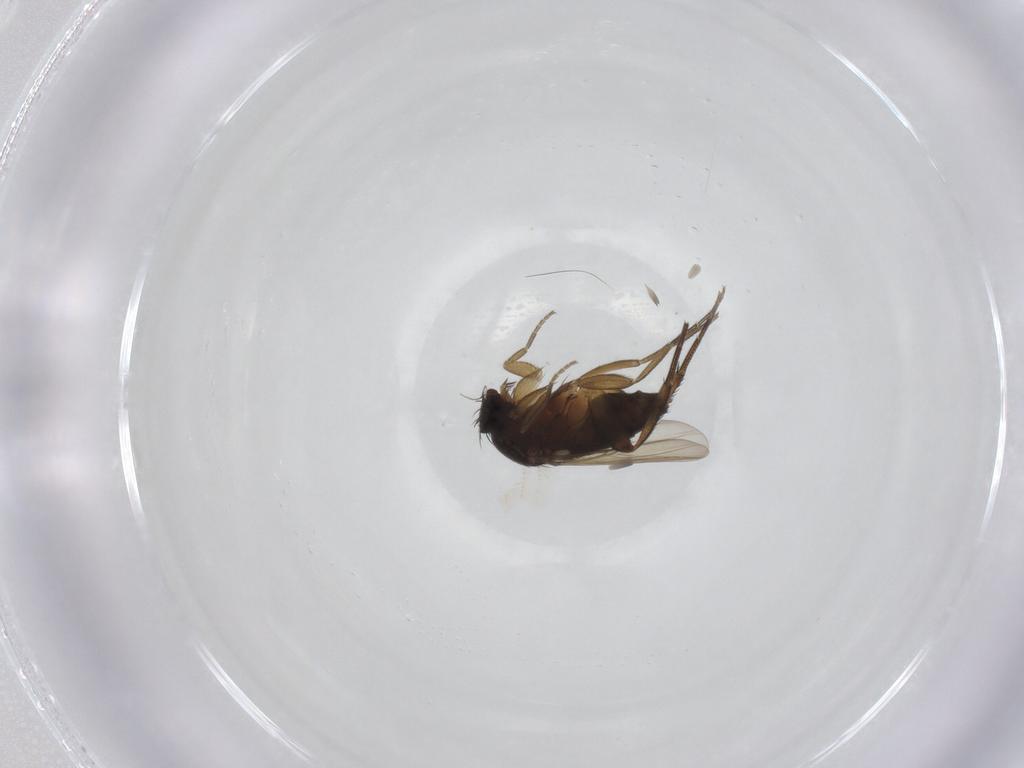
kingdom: Animalia
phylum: Arthropoda
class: Insecta
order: Diptera
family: Phoridae
